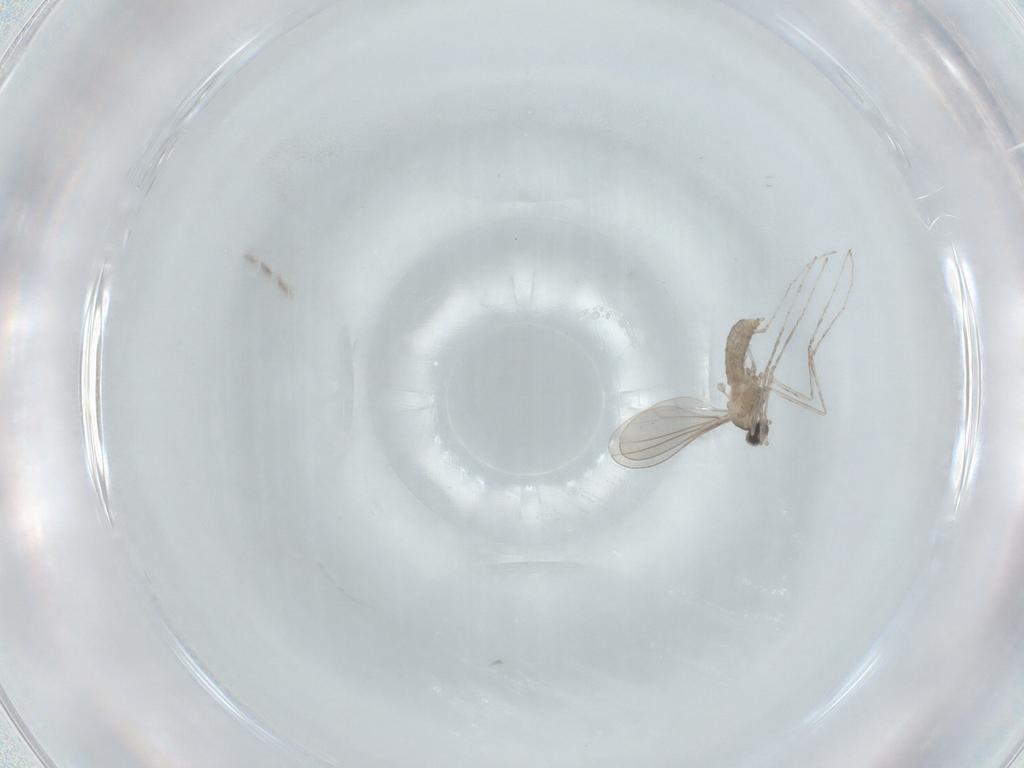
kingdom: Animalia
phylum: Arthropoda
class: Insecta
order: Diptera
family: Cecidomyiidae
